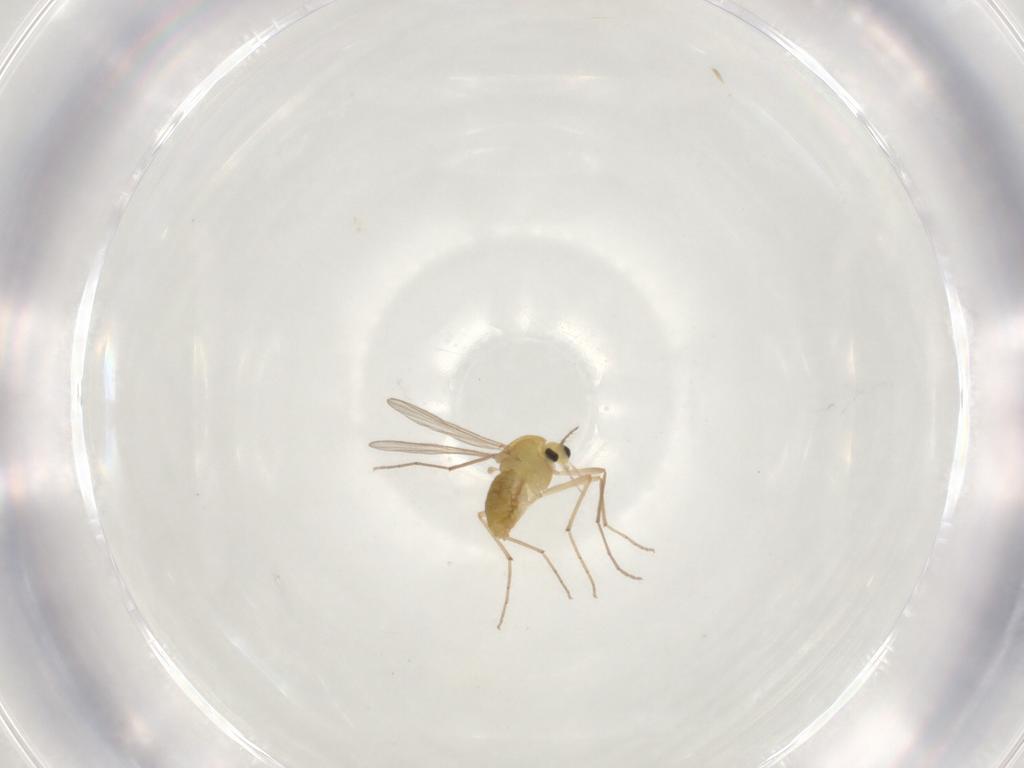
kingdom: Animalia
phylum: Arthropoda
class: Insecta
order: Diptera
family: Chironomidae
